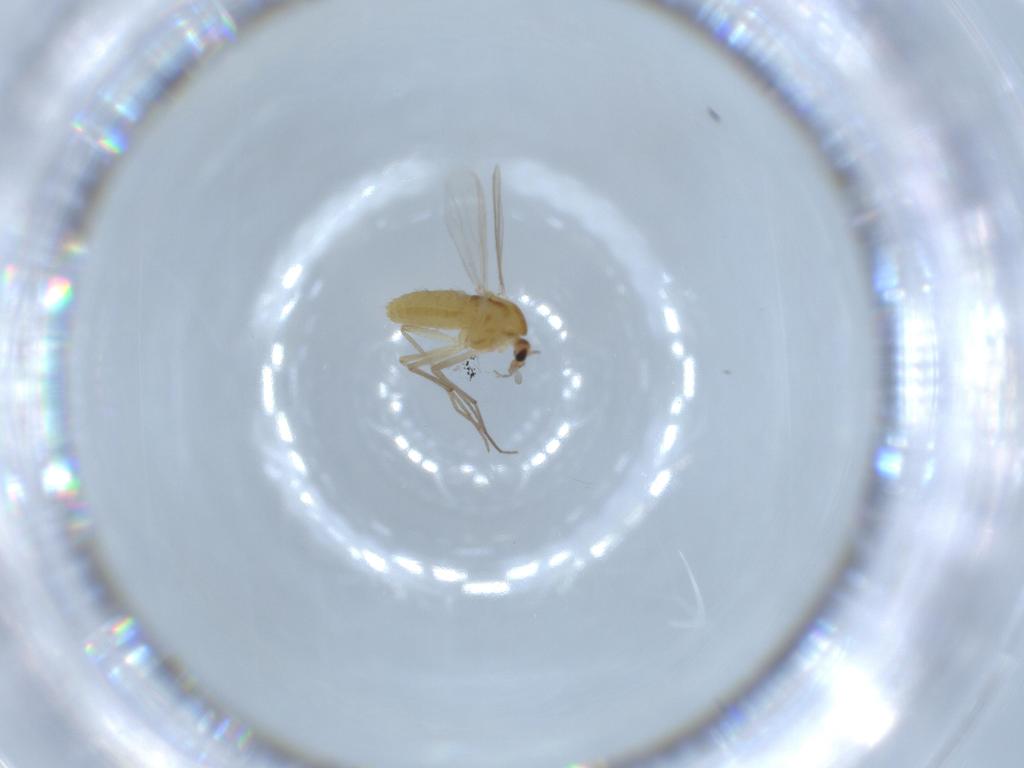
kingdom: Animalia
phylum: Arthropoda
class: Insecta
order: Diptera
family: Chironomidae
